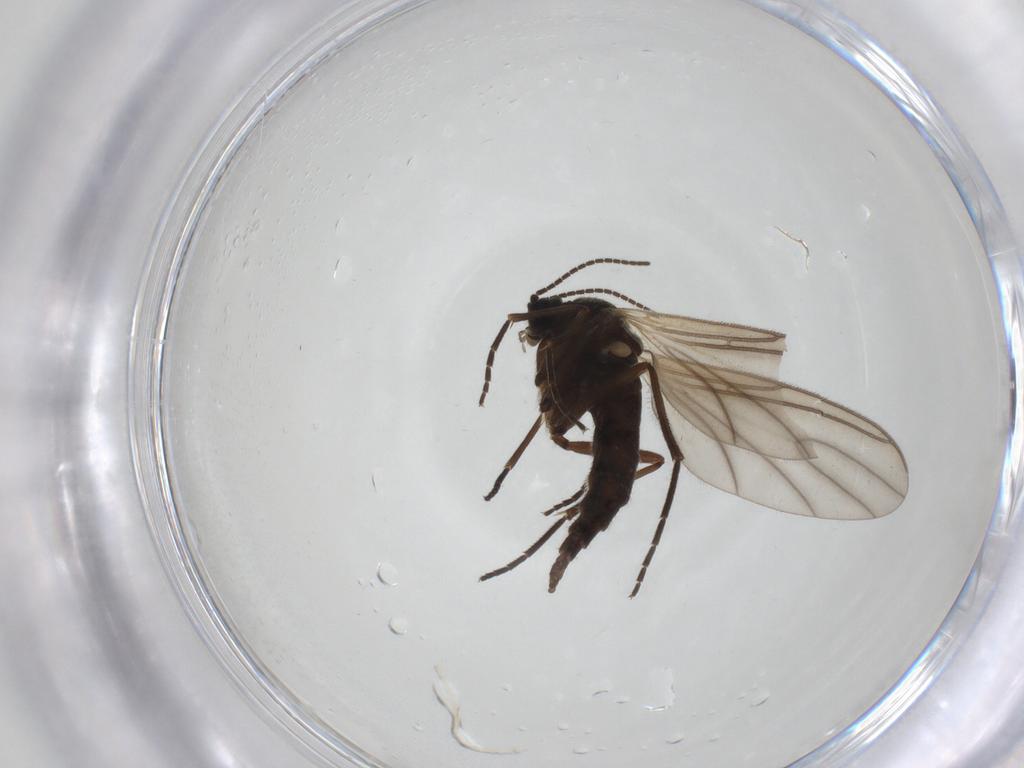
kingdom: Animalia
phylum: Arthropoda
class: Insecta
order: Diptera
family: Sciaridae
